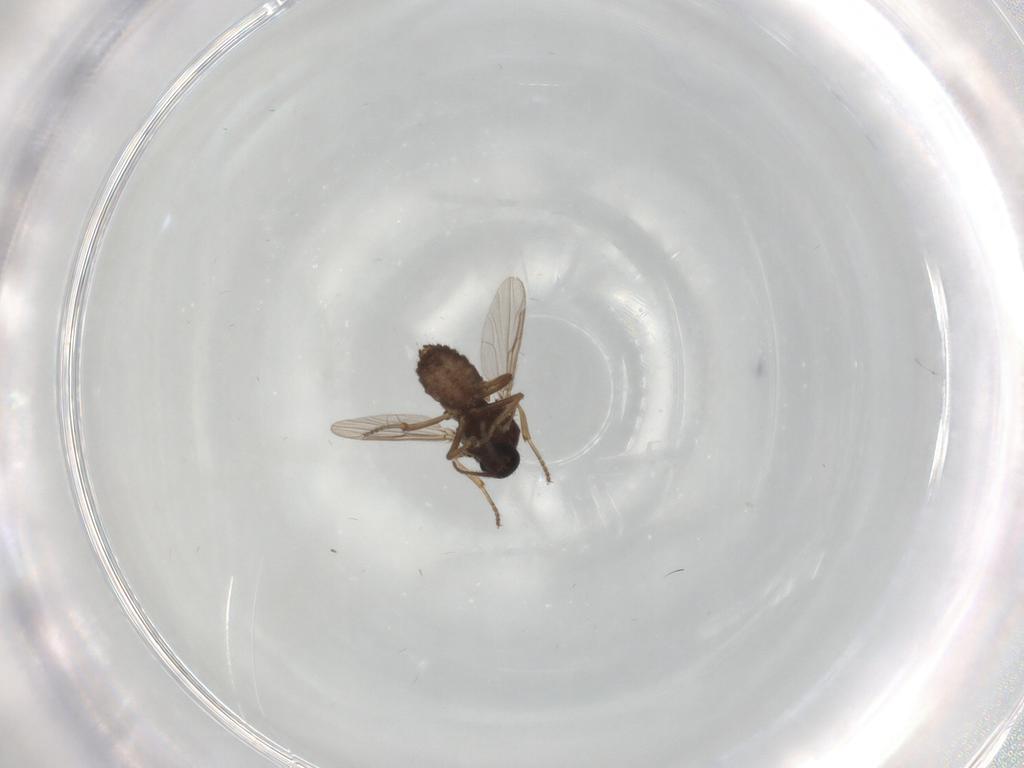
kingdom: Animalia
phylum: Arthropoda
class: Insecta
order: Diptera
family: Ceratopogonidae
